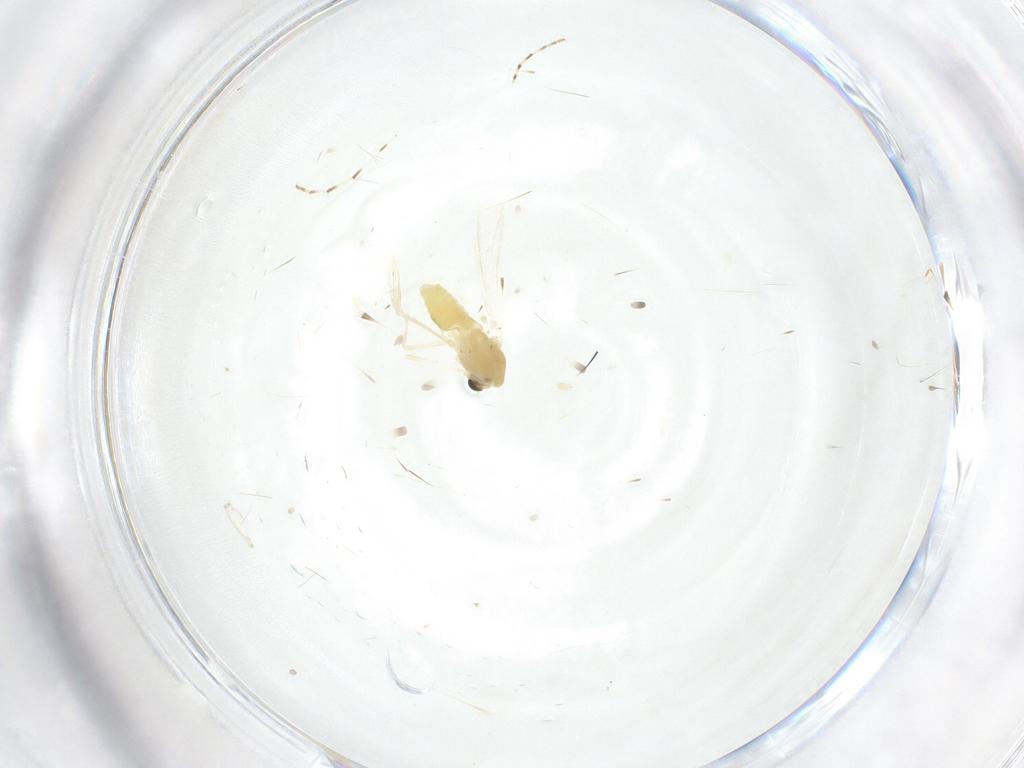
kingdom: Animalia
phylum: Arthropoda
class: Insecta
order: Diptera
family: Chironomidae
